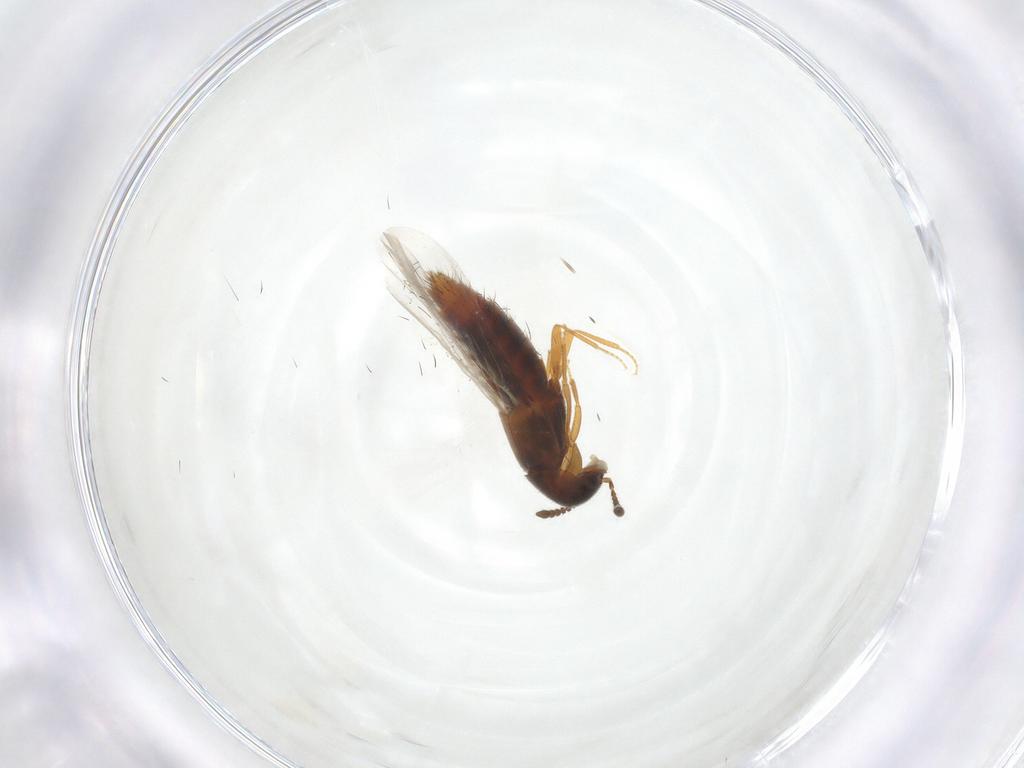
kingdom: Animalia
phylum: Arthropoda
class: Insecta
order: Coleoptera
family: Staphylinidae
